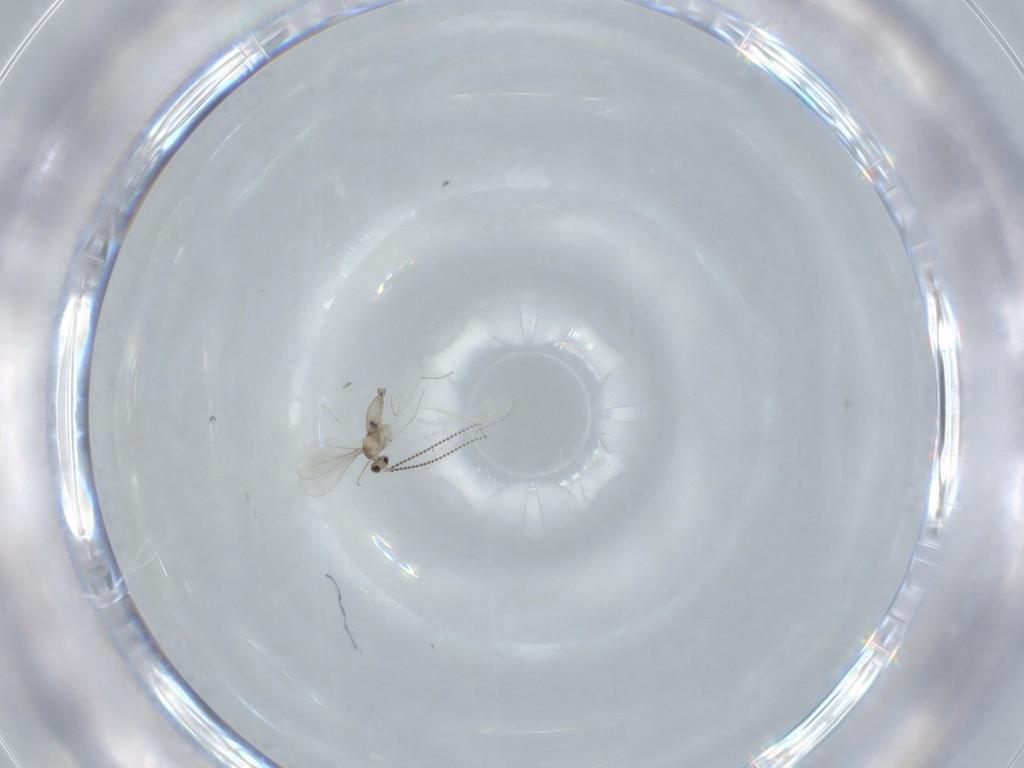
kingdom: Animalia
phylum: Arthropoda
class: Insecta
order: Diptera
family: Cecidomyiidae
